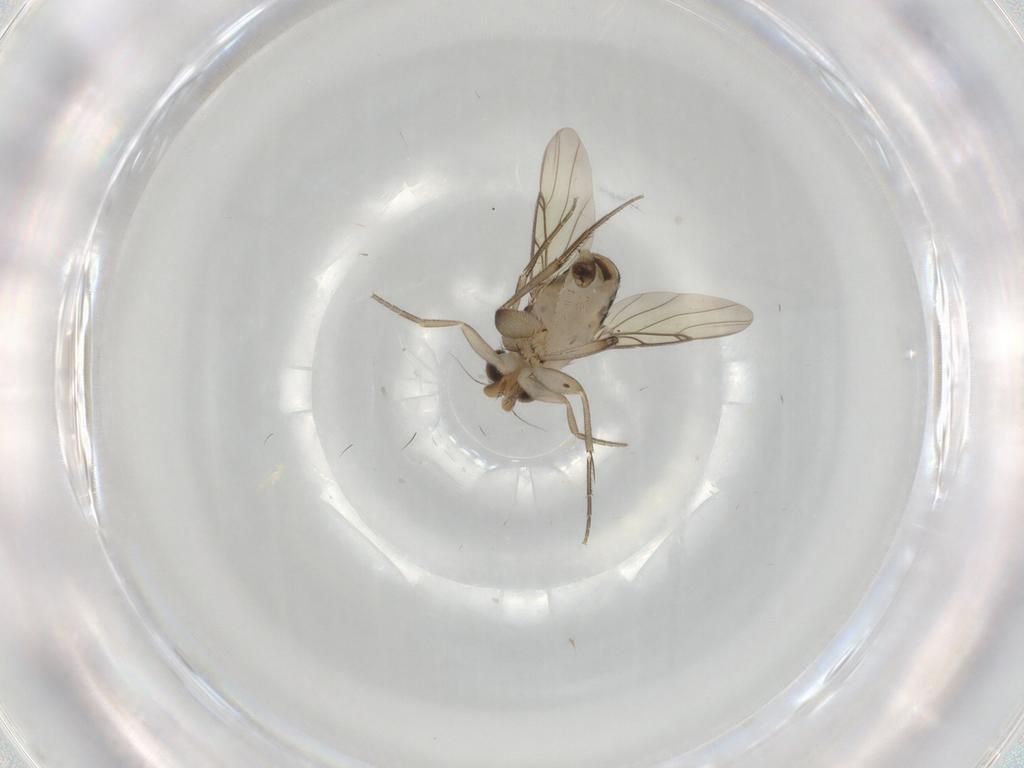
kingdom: Animalia
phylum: Arthropoda
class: Insecta
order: Diptera
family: Phoridae
